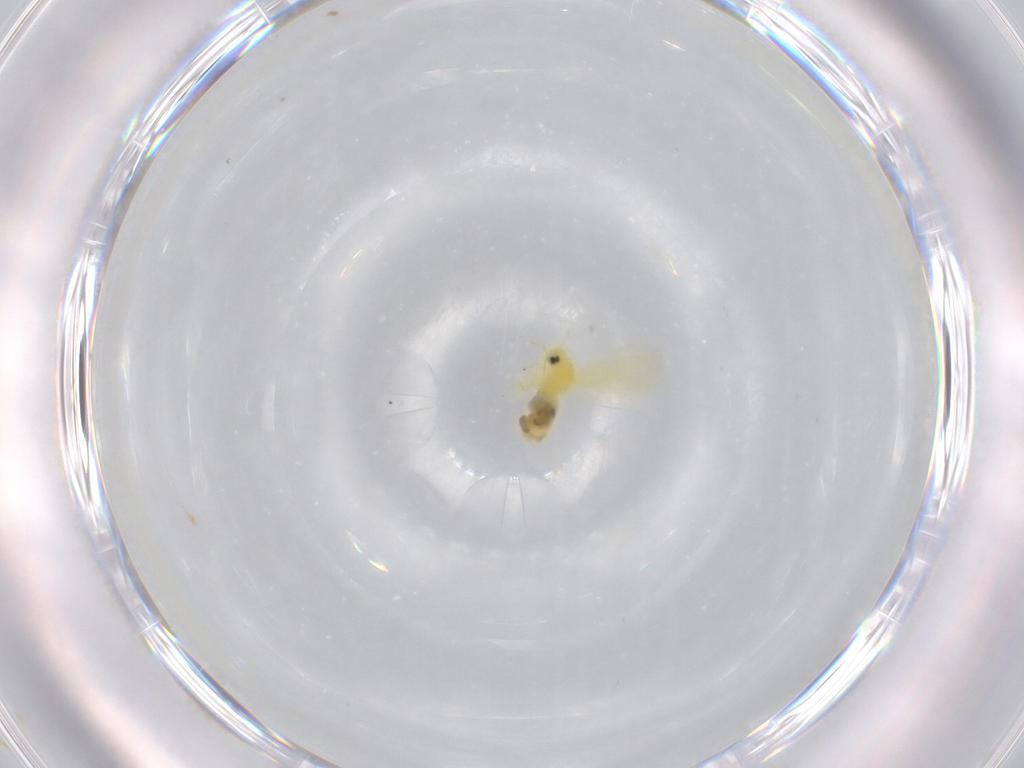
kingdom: Animalia
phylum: Arthropoda
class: Insecta
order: Hemiptera
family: Aleyrodidae
